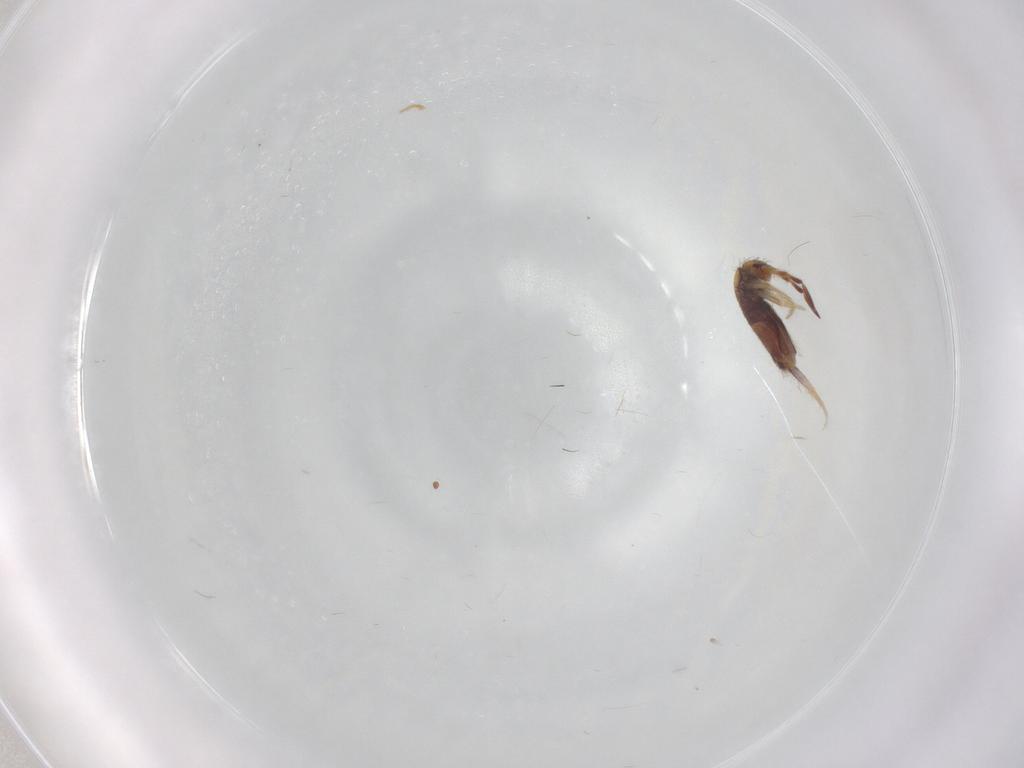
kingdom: Animalia
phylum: Arthropoda
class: Collembola
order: Entomobryomorpha
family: Entomobryidae
